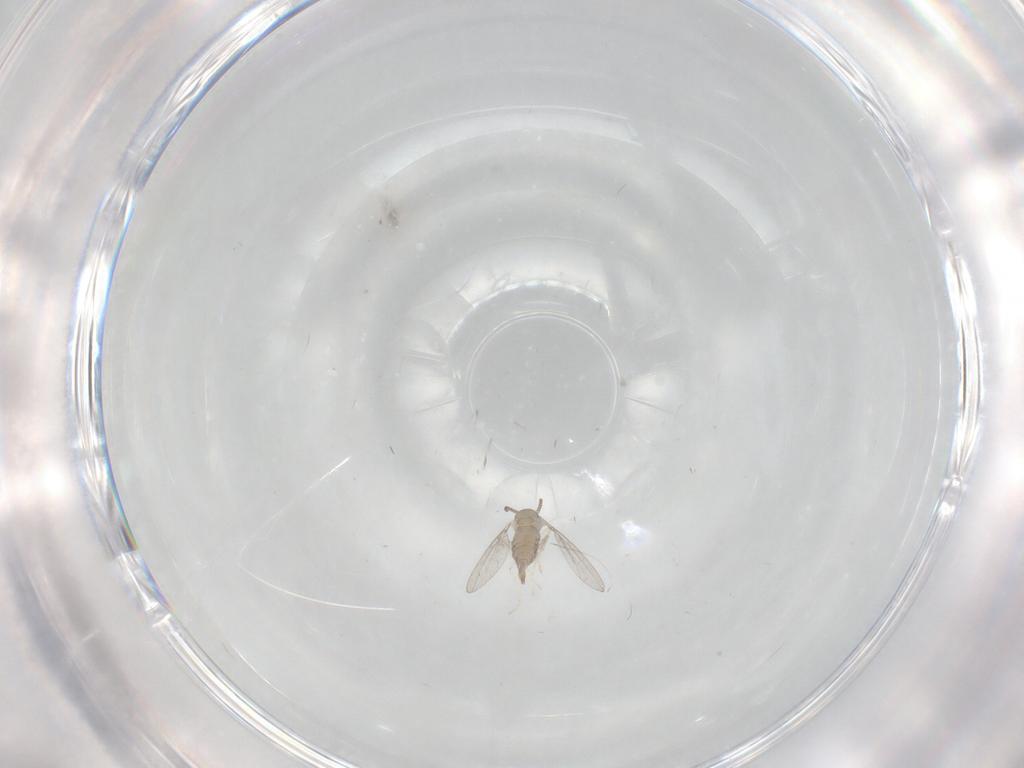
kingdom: Animalia
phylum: Arthropoda
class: Insecta
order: Diptera
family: Cecidomyiidae
